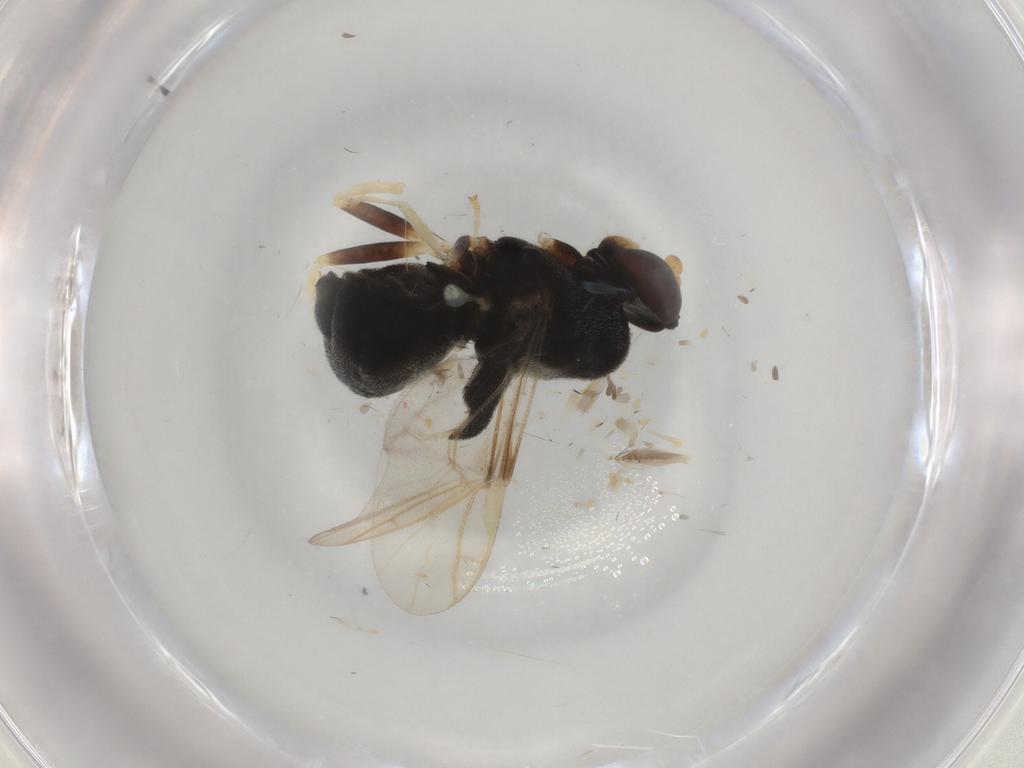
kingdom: Animalia
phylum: Arthropoda
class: Insecta
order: Diptera
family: Stratiomyidae
